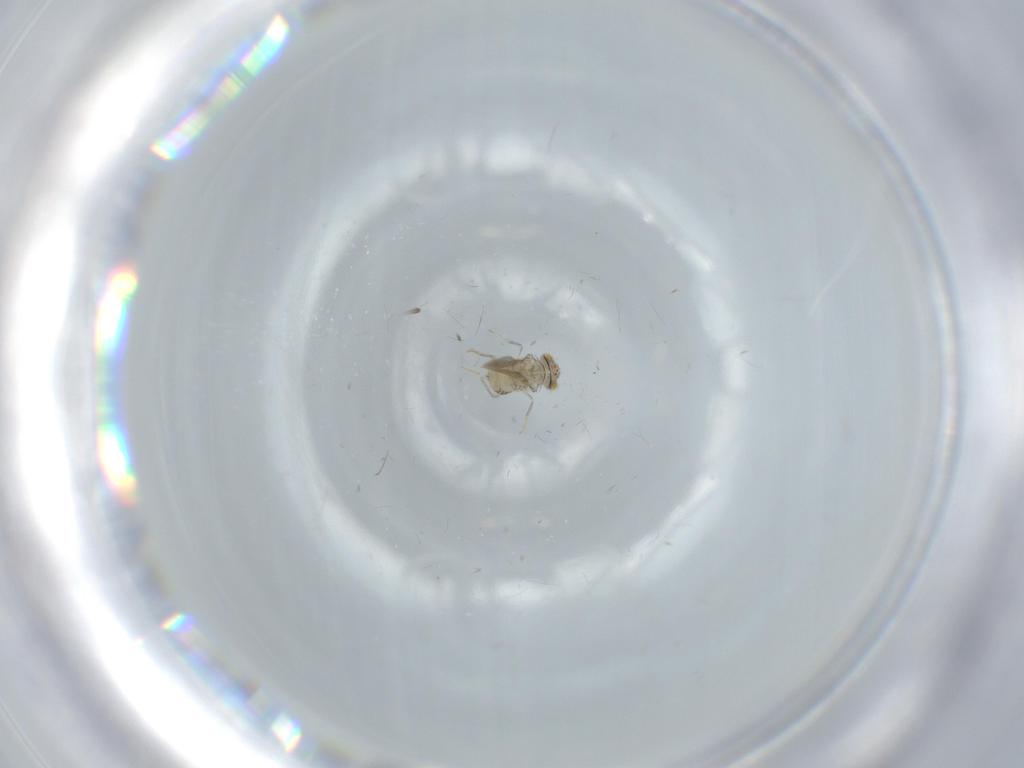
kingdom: Animalia
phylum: Arthropoda
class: Insecta
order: Hymenoptera
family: Aphelinidae
